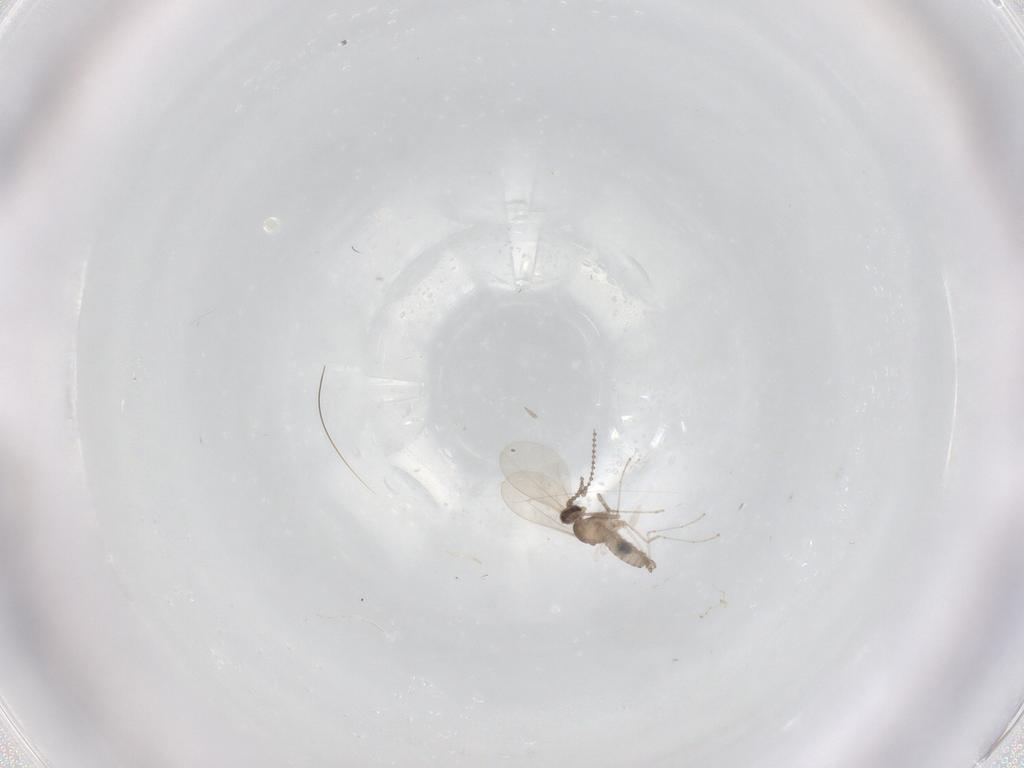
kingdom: Animalia
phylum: Arthropoda
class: Insecta
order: Diptera
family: Cecidomyiidae
